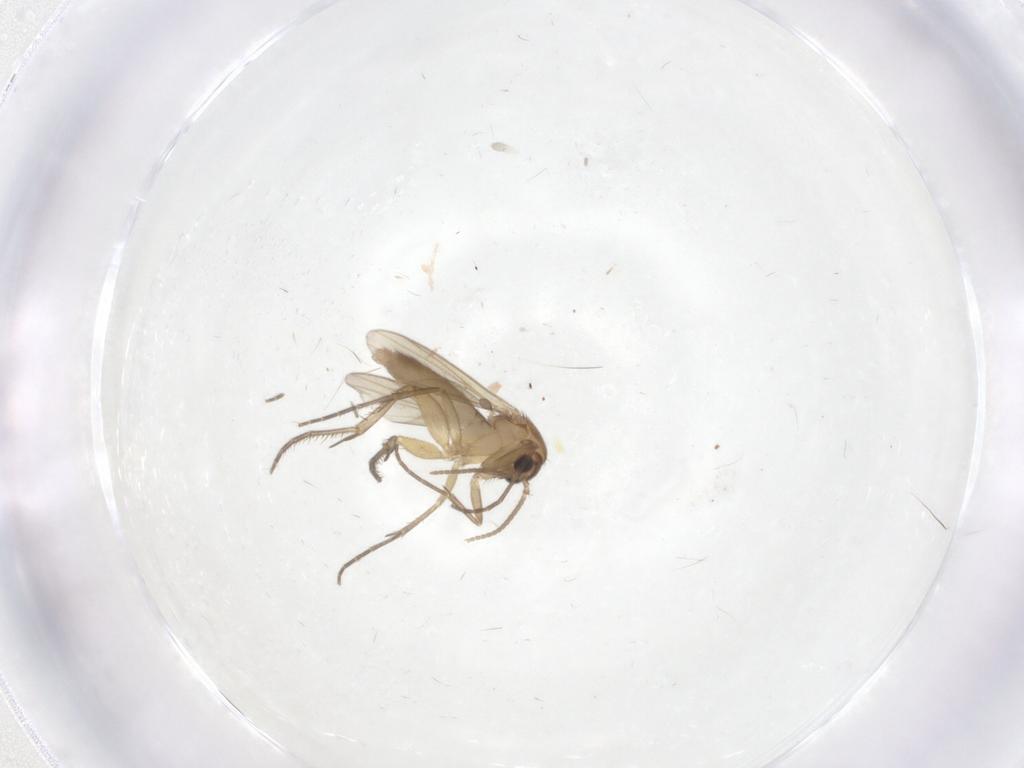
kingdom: Animalia
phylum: Arthropoda
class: Insecta
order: Diptera
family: Mycetophilidae
